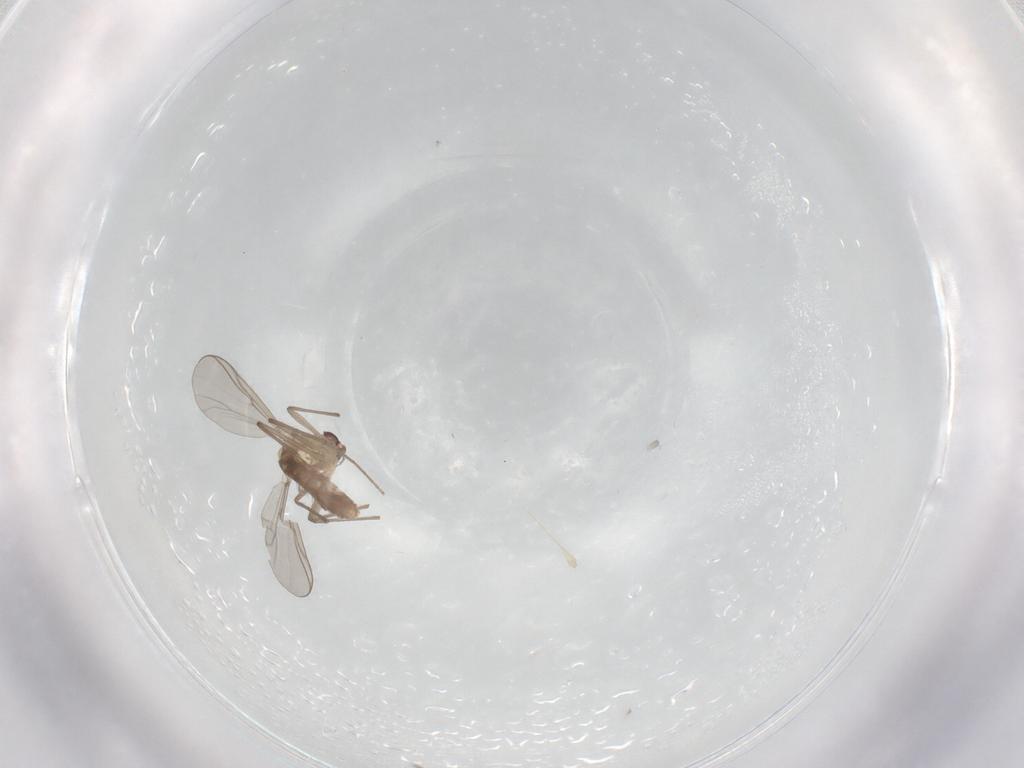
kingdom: Animalia
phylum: Arthropoda
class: Insecta
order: Diptera
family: Chironomidae
